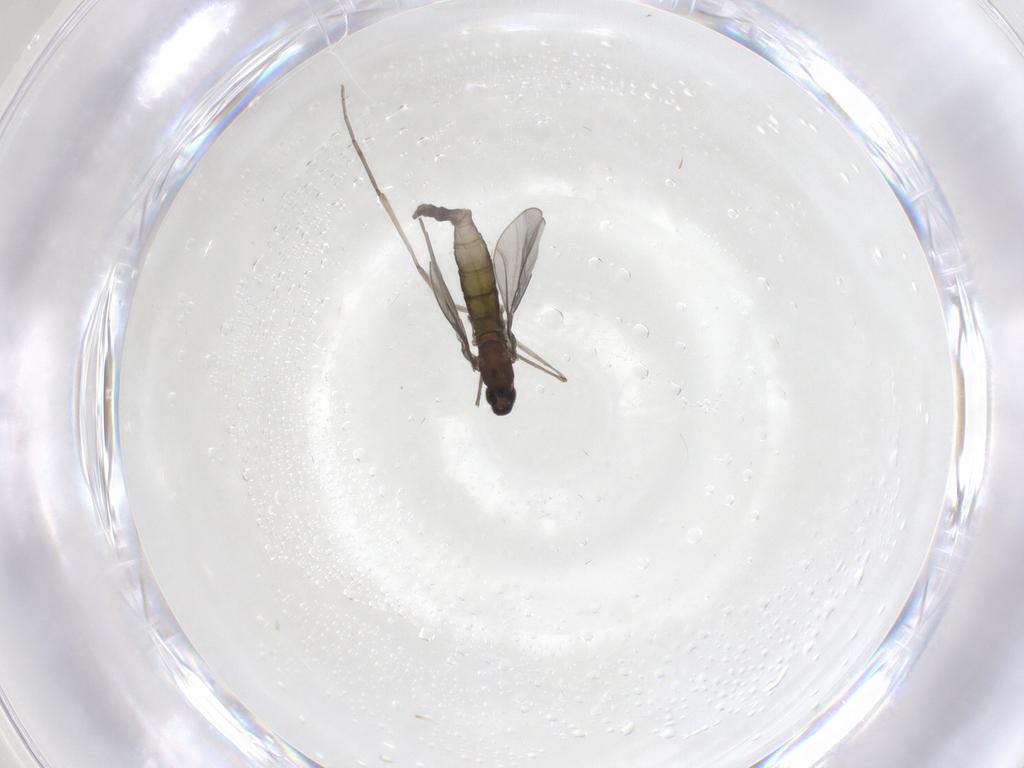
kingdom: Animalia
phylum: Arthropoda
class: Insecta
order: Diptera
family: Cecidomyiidae
